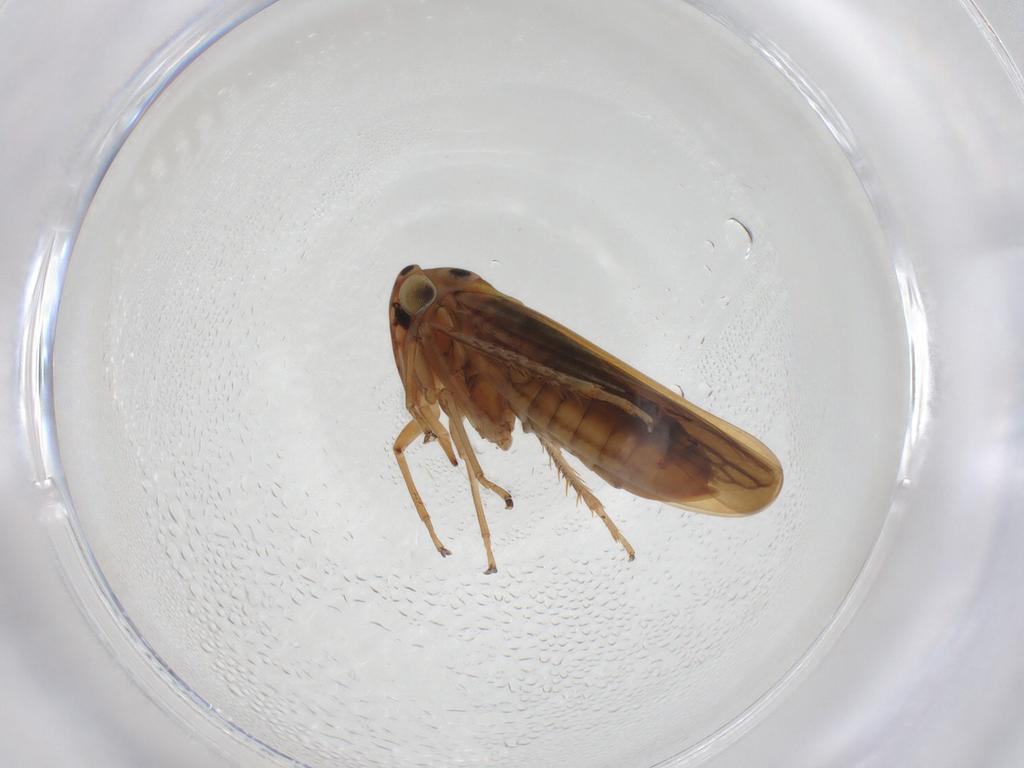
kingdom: Animalia
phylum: Arthropoda
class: Insecta
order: Hemiptera
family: Cicadellidae
